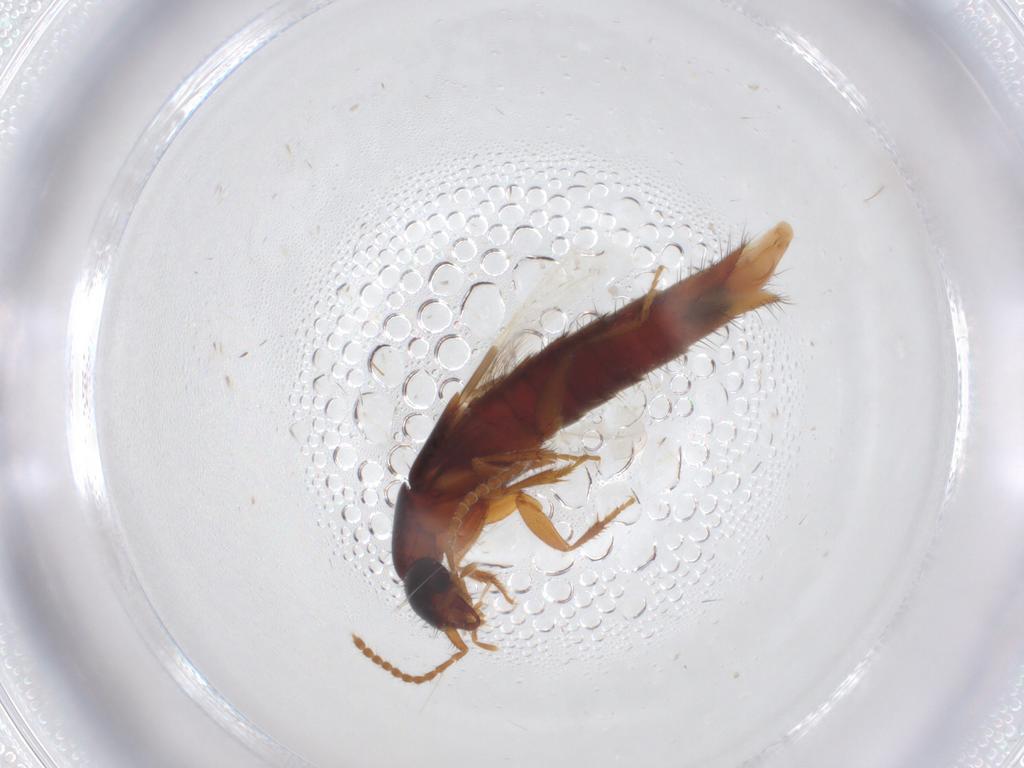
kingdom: Animalia
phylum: Arthropoda
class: Insecta
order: Coleoptera
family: Staphylinidae
